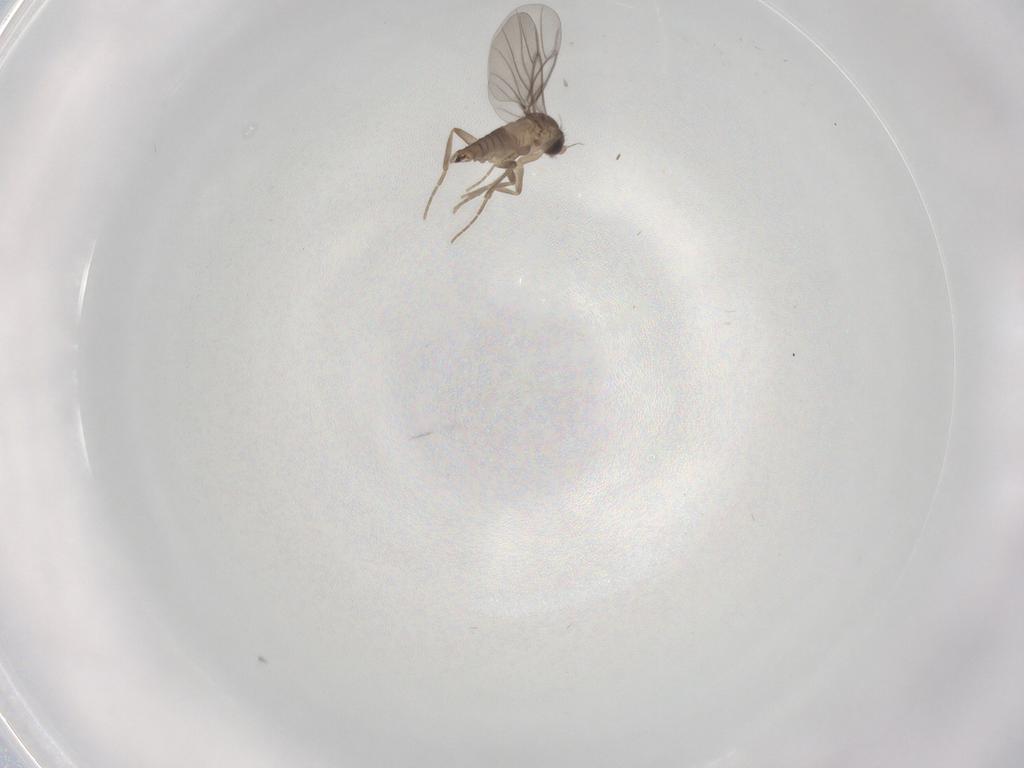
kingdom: Animalia
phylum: Arthropoda
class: Insecta
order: Diptera
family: Cecidomyiidae
